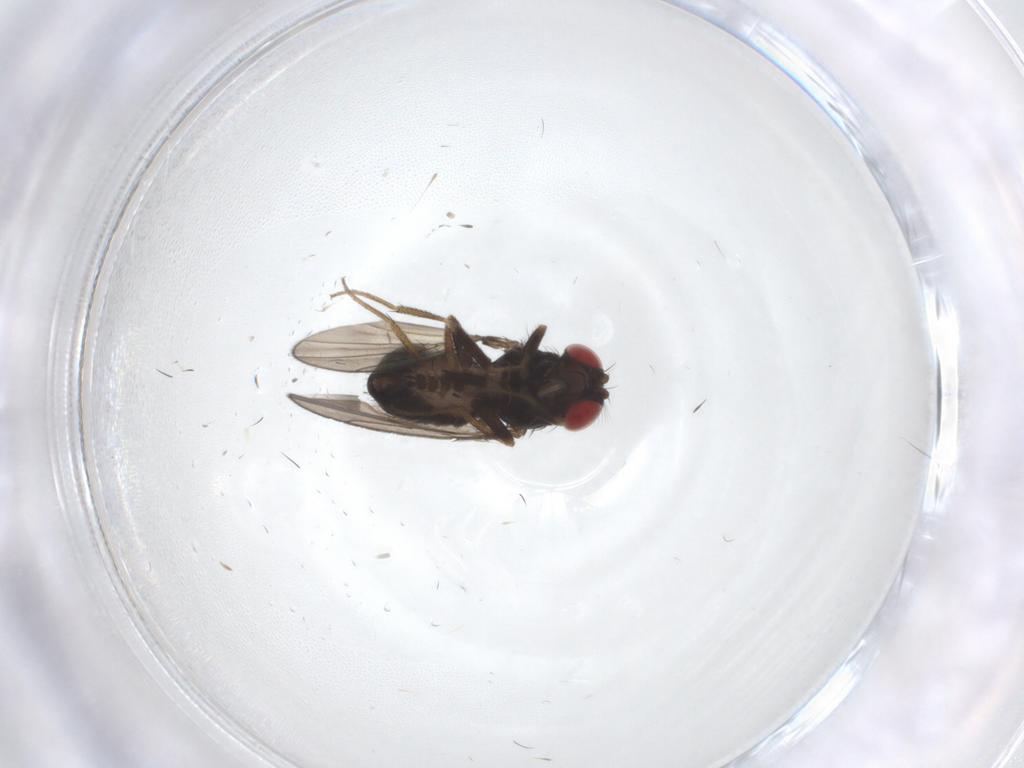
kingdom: Animalia
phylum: Arthropoda
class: Insecta
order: Diptera
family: Drosophilidae
